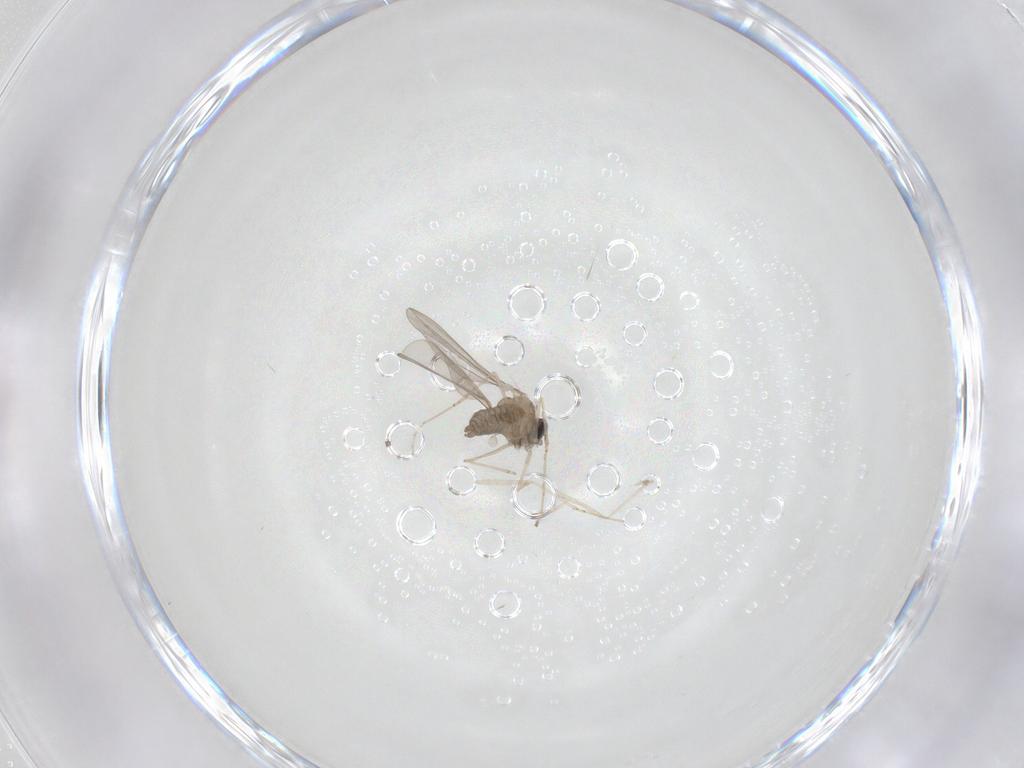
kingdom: Animalia
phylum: Arthropoda
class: Insecta
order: Diptera
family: Cecidomyiidae
